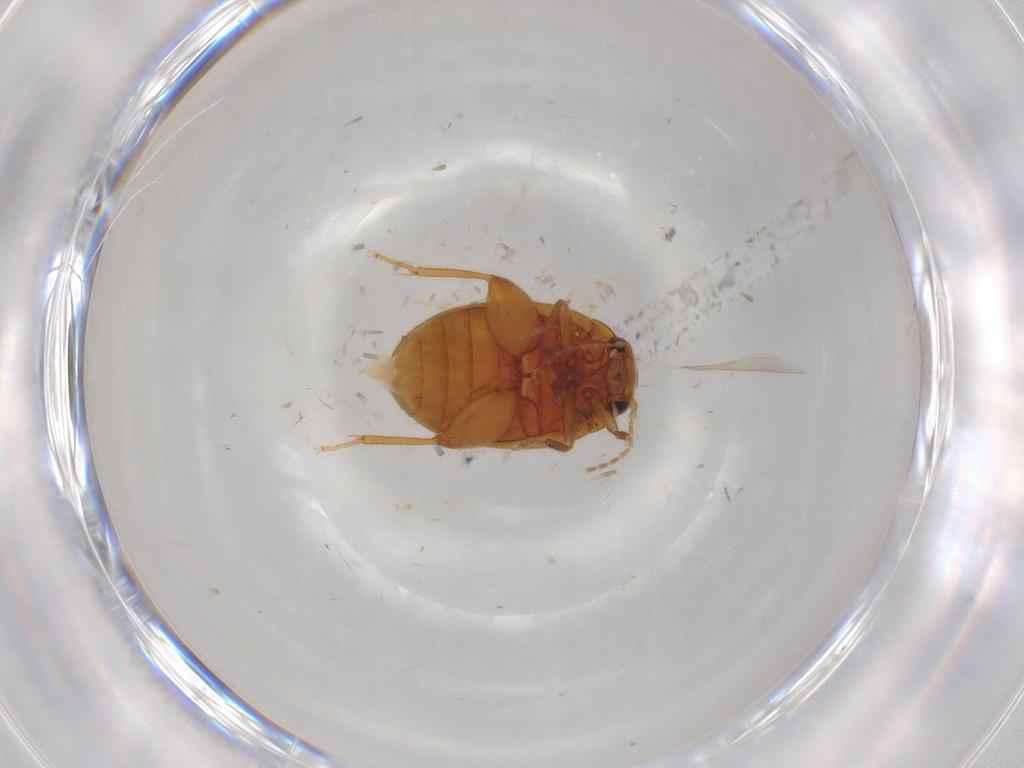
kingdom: Animalia
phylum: Arthropoda
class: Insecta
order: Coleoptera
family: Scirtidae
